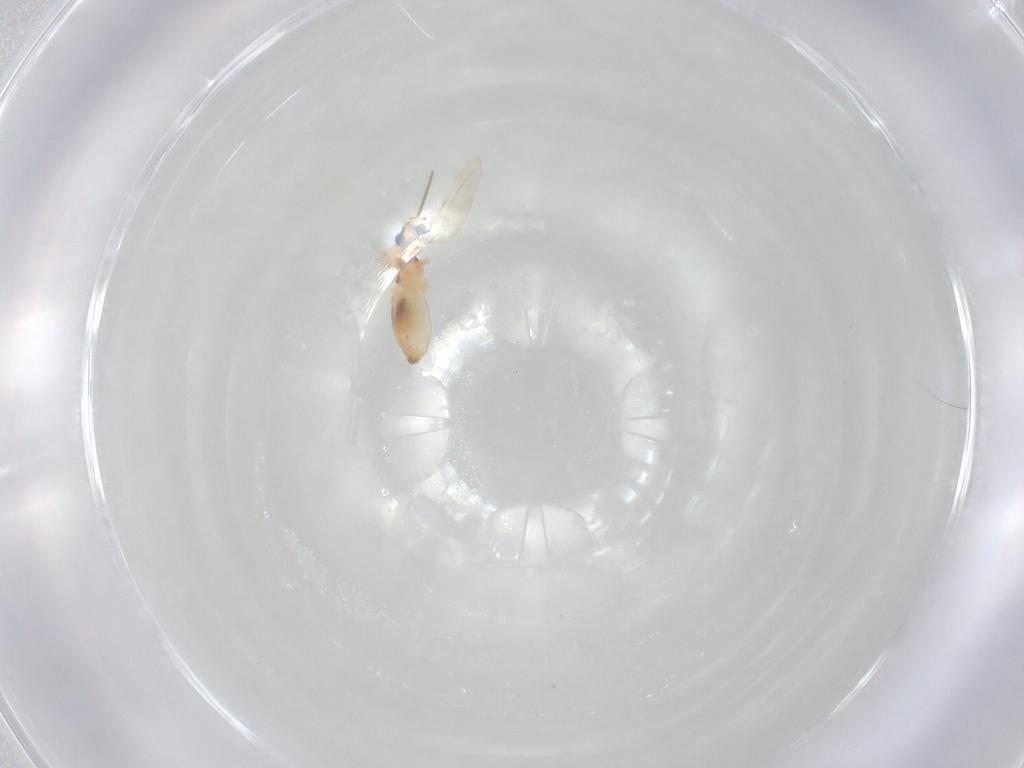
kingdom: Animalia
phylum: Arthropoda
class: Insecta
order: Diptera
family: Cecidomyiidae
